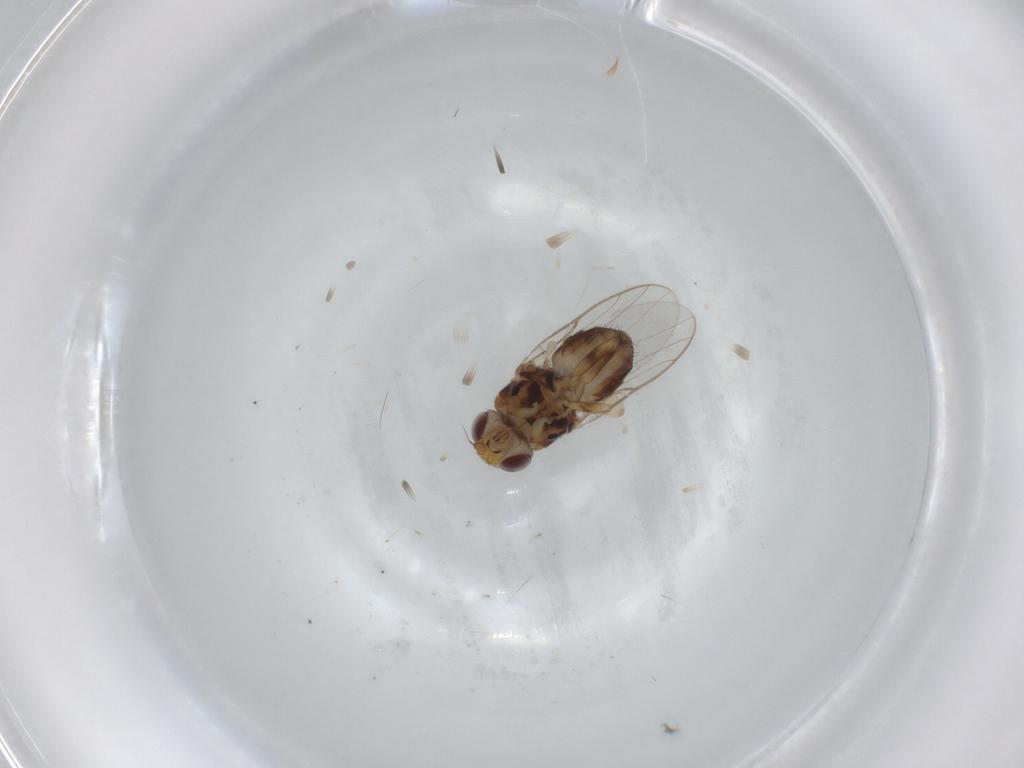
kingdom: Animalia
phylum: Arthropoda
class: Insecta
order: Diptera
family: Chloropidae
